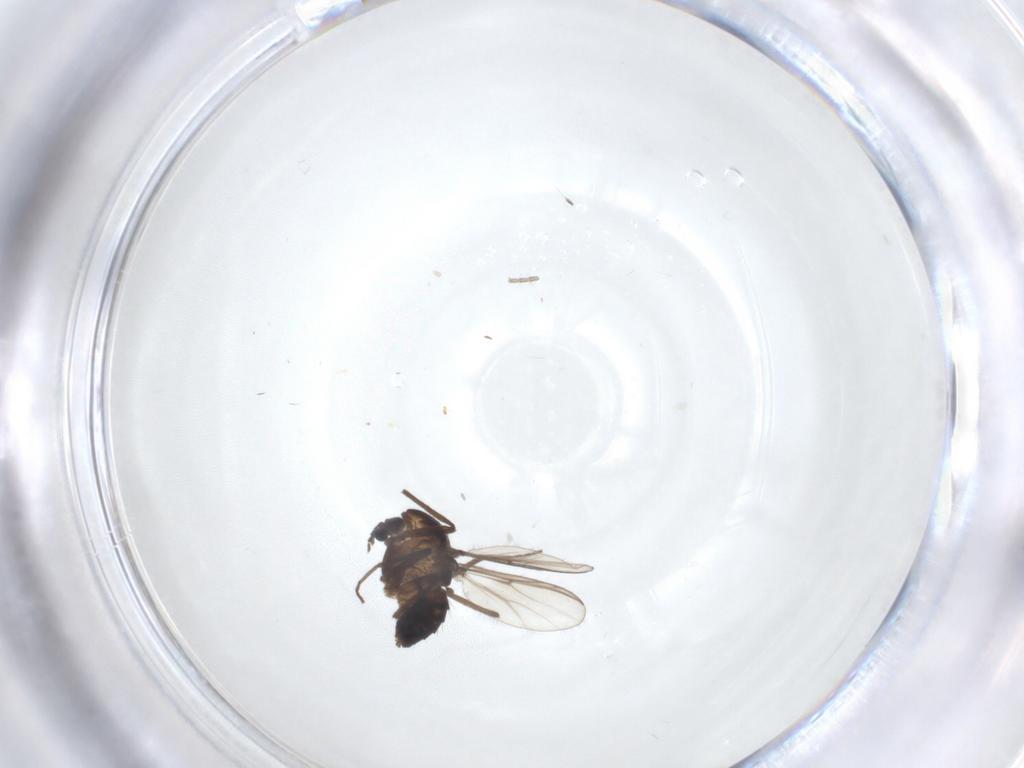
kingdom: Animalia
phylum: Arthropoda
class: Insecta
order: Diptera
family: Chironomidae
